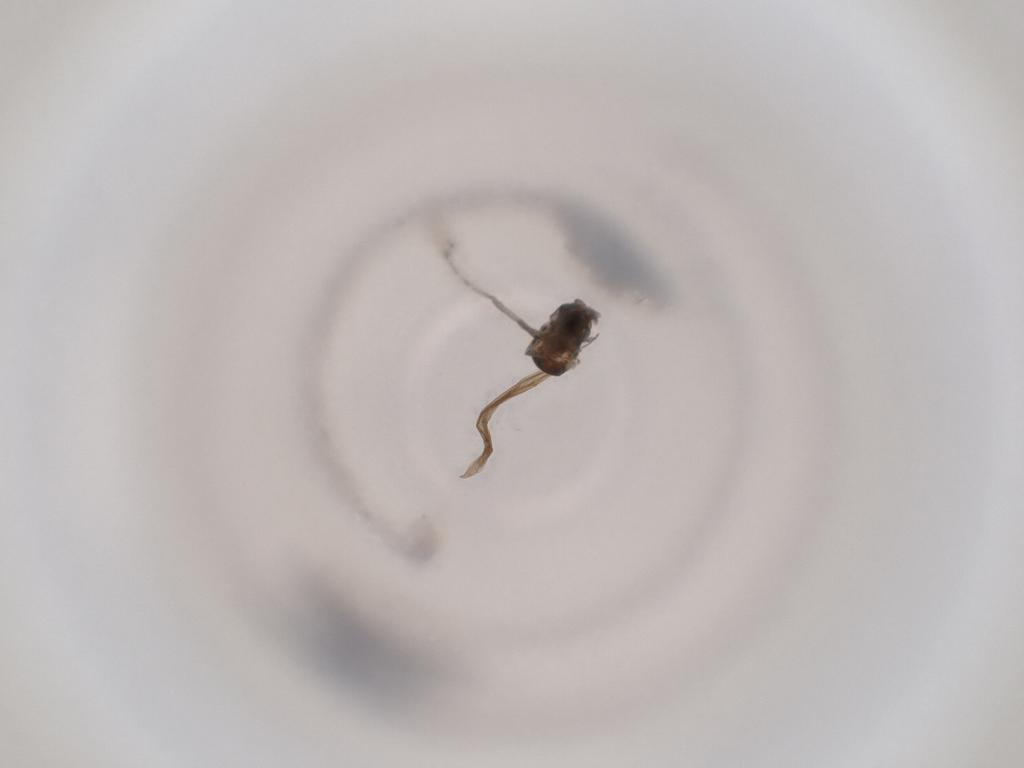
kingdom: Animalia
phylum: Arthropoda
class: Insecta
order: Diptera
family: Cecidomyiidae
